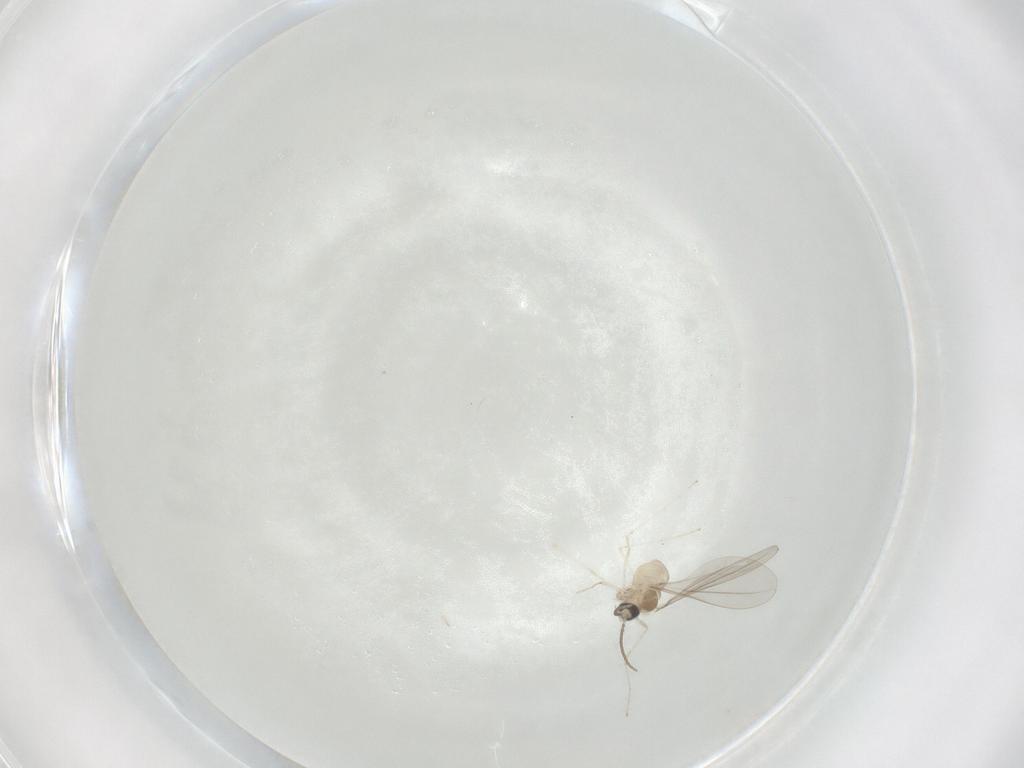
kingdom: Animalia
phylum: Arthropoda
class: Insecta
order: Diptera
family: Cecidomyiidae
